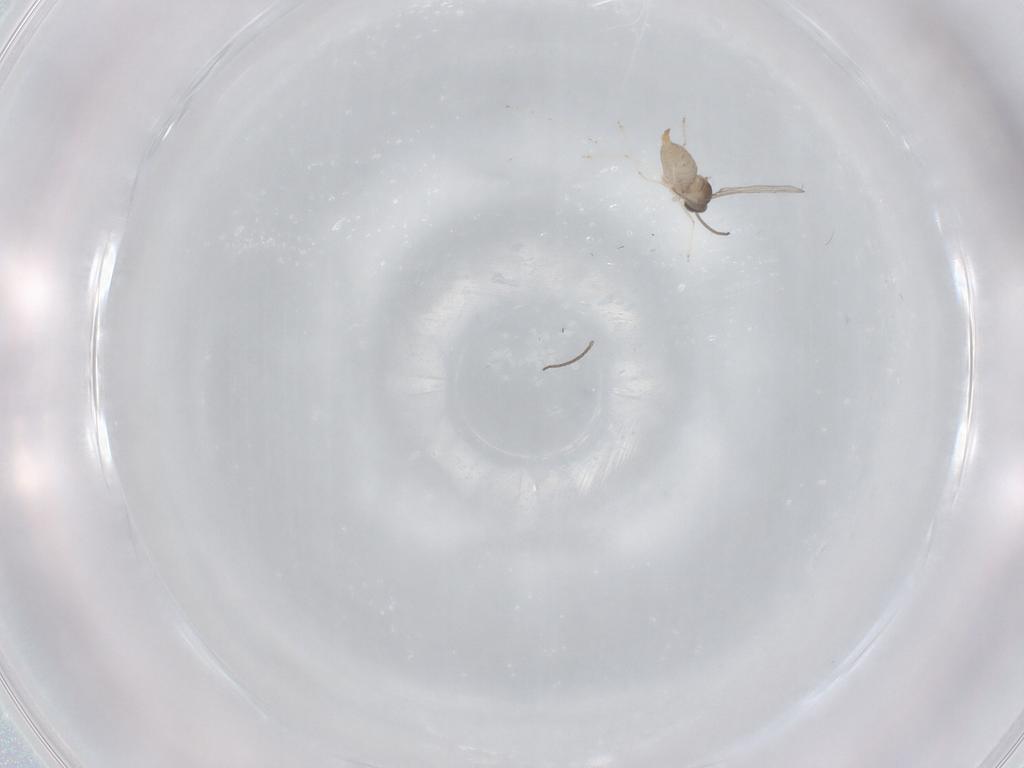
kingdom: Animalia
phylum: Arthropoda
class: Insecta
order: Diptera
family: Cecidomyiidae
